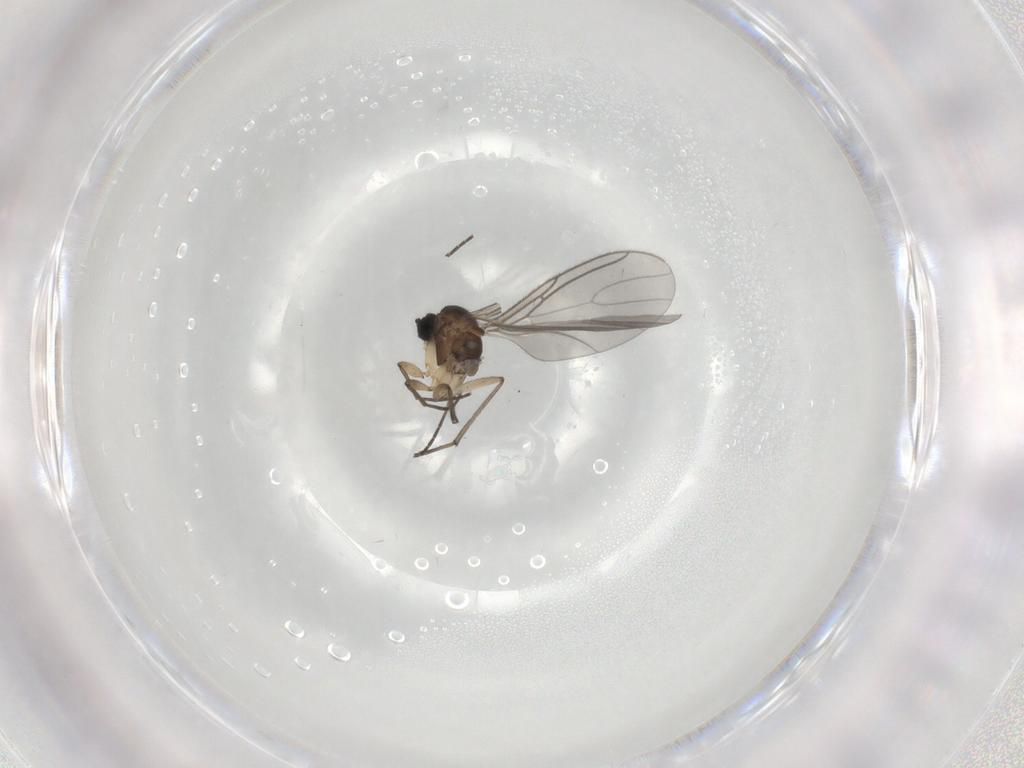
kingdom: Animalia
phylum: Arthropoda
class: Insecta
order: Diptera
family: Sciaridae
